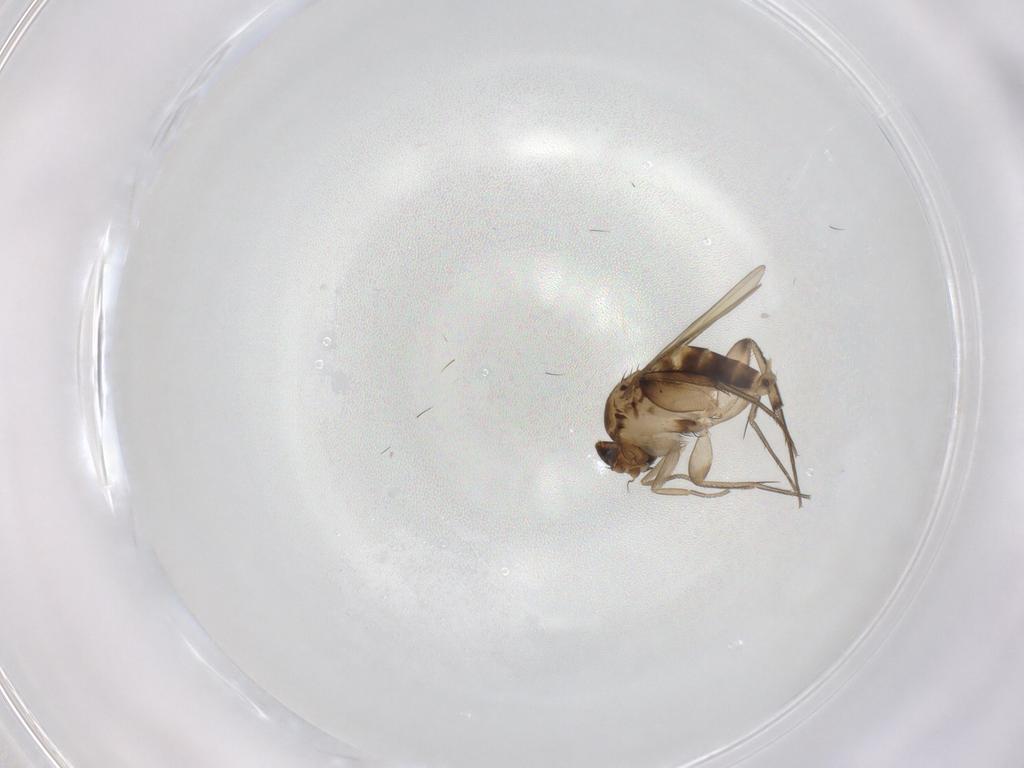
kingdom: Animalia
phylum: Arthropoda
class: Insecta
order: Diptera
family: Phoridae
